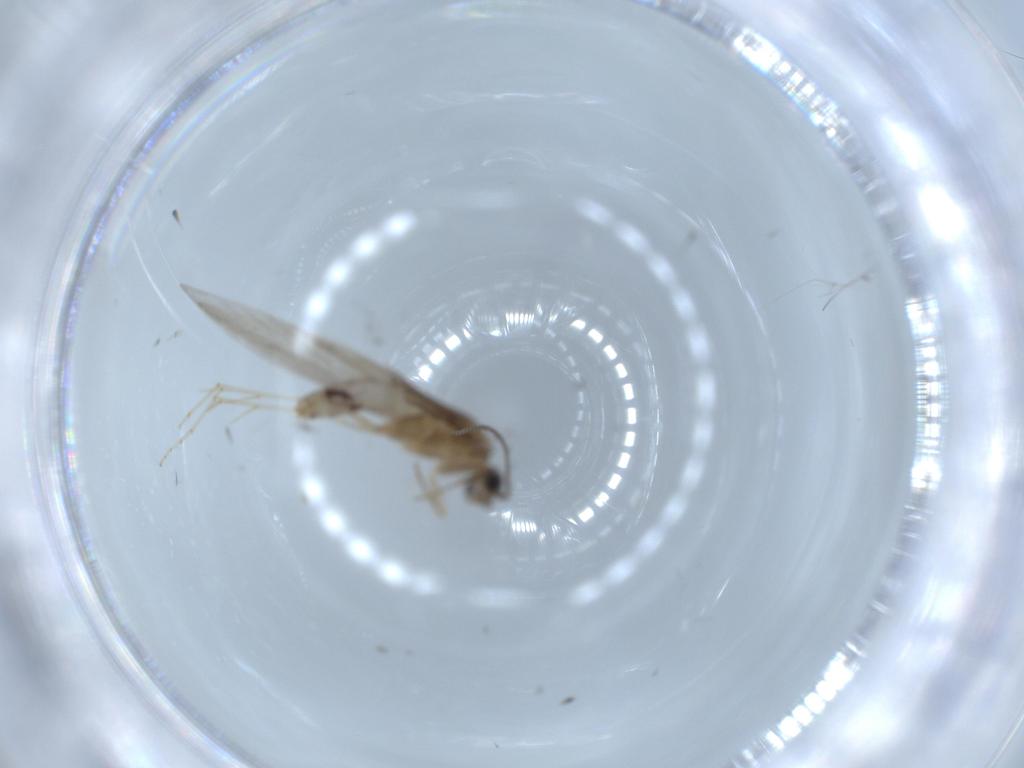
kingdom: Animalia
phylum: Arthropoda
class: Insecta
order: Trichoptera
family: Hydroptilidae
